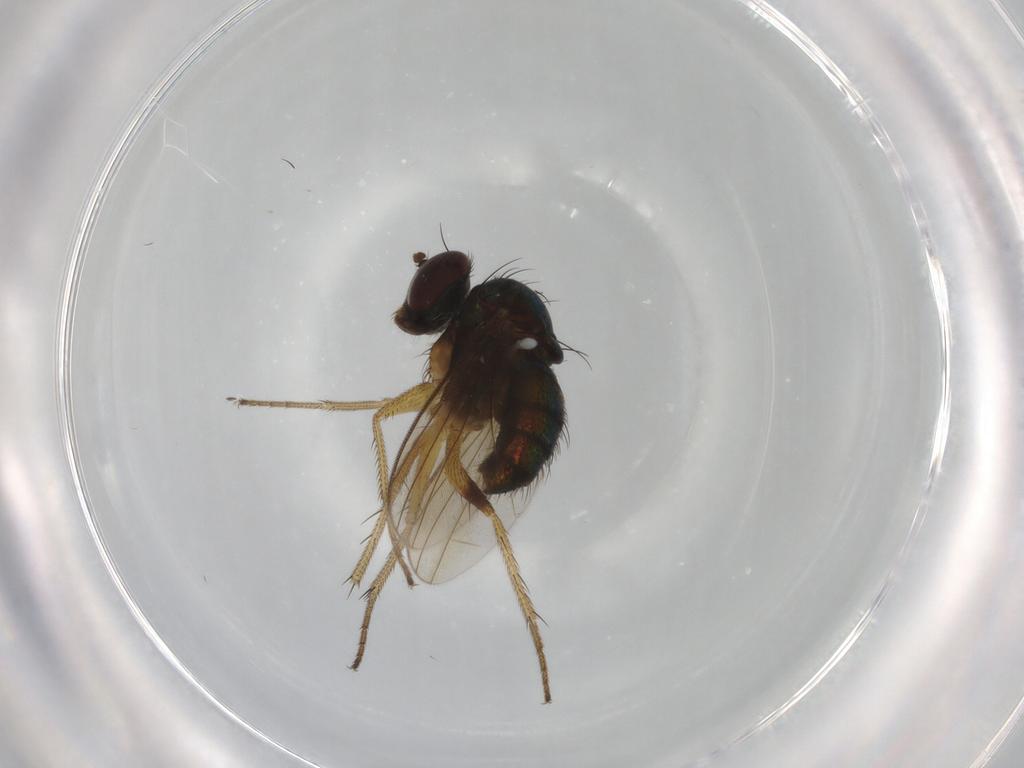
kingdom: Animalia
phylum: Arthropoda
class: Insecta
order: Diptera
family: Dolichopodidae
